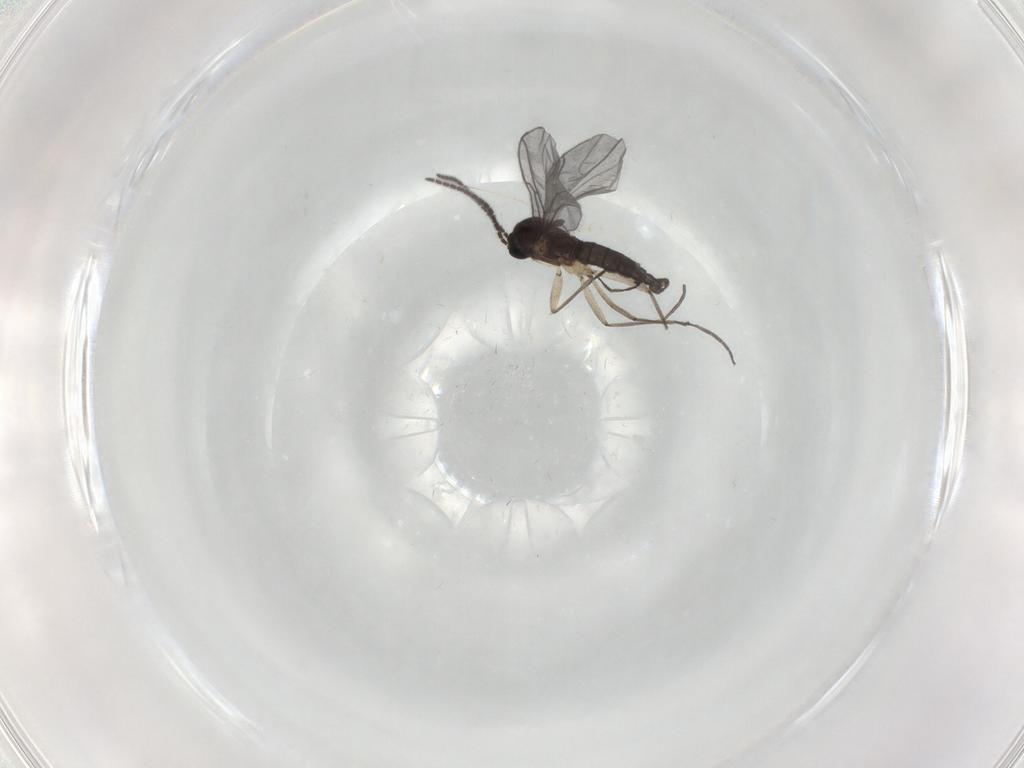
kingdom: Animalia
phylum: Arthropoda
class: Insecta
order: Diptera
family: Sciaridae
